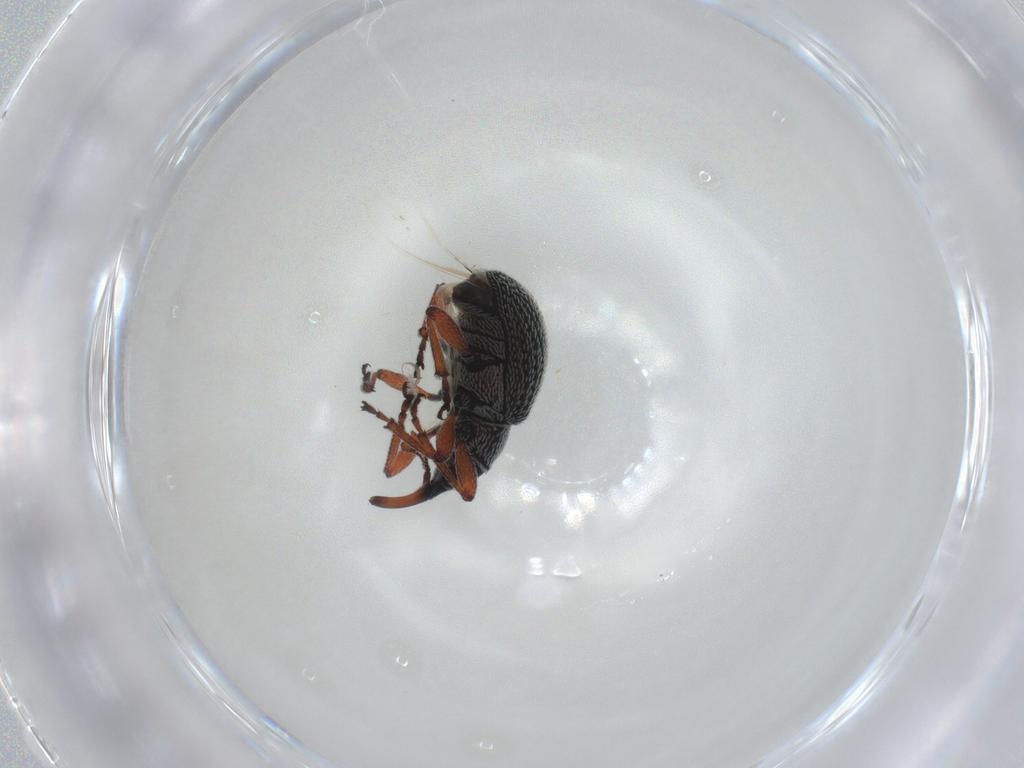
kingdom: Animalia
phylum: Arthropoda
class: Insecta
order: Coleoptera
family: Brentidae
